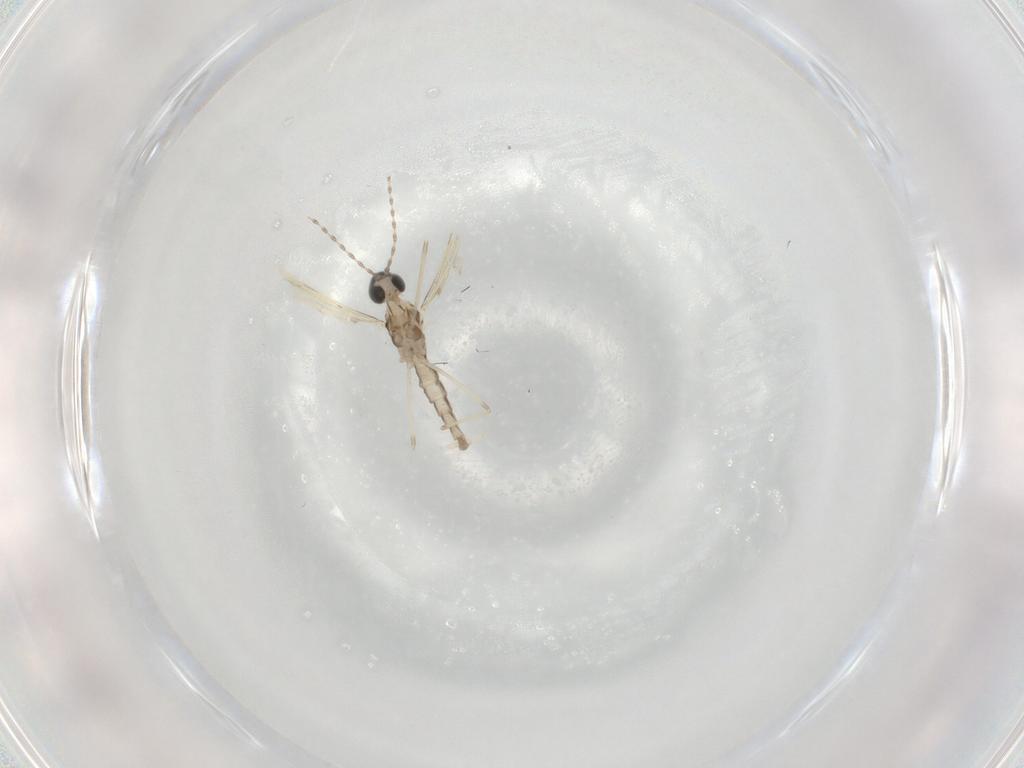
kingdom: Animalia
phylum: Arthropoda
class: Insecta
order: Diptera
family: Cecidomyiidae
